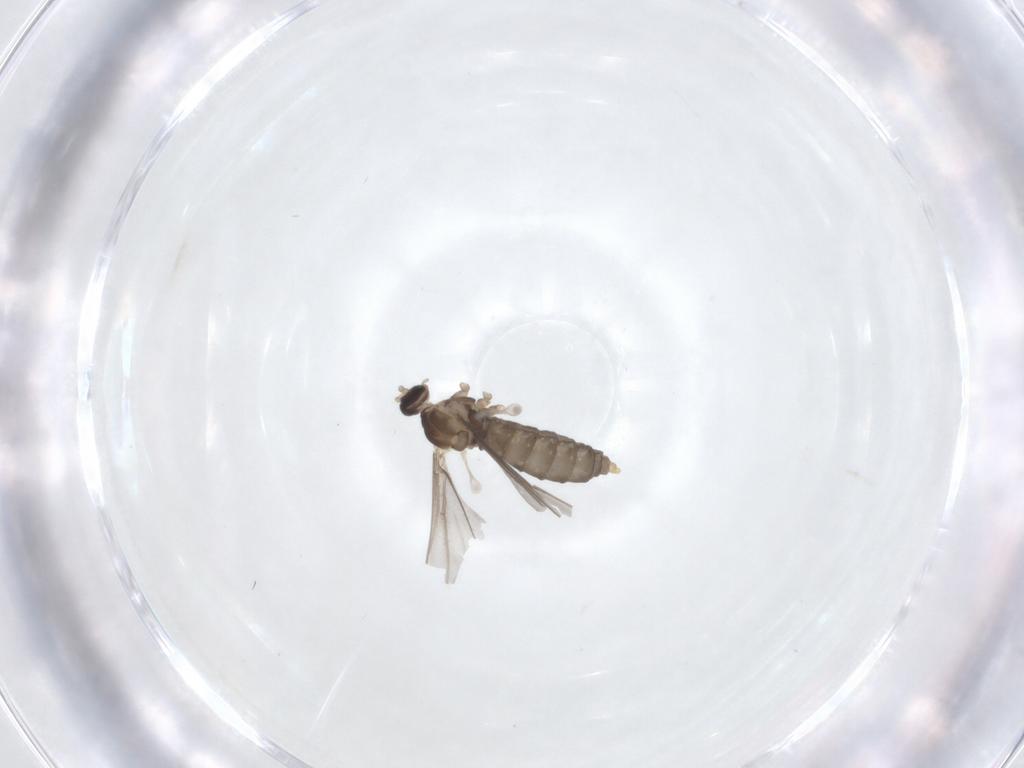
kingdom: Animalia
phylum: Arthropoda
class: Insecta
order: Diptera
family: Cecidomyiidae
